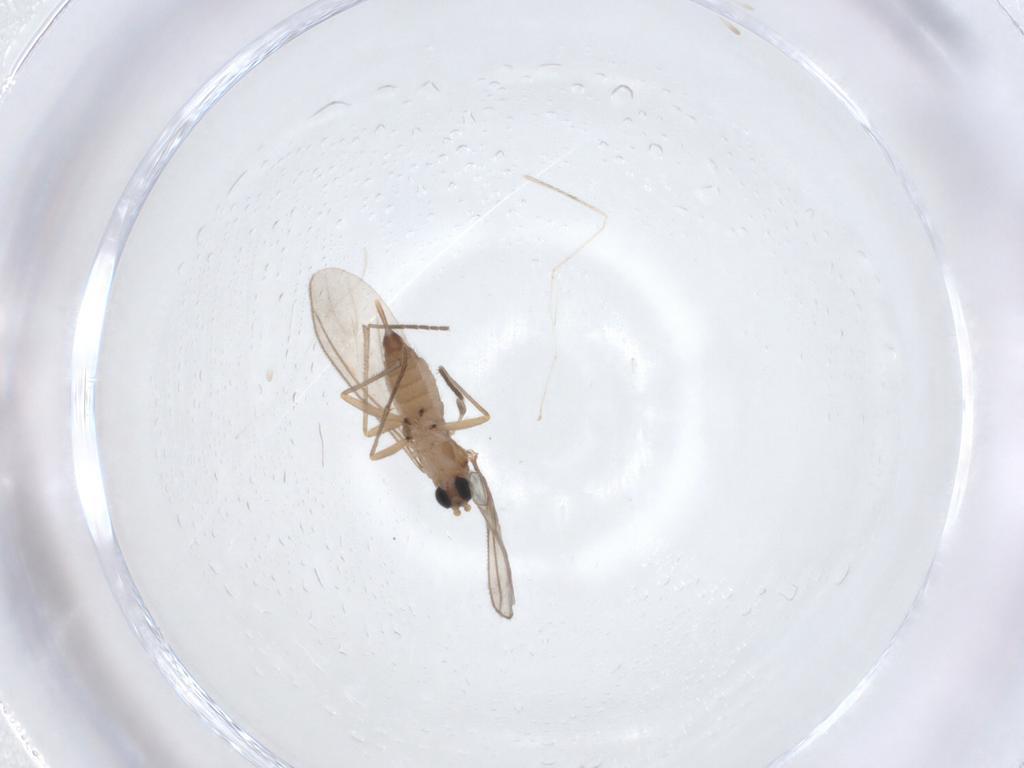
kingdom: Animalia
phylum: Arthropoda
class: Insecta
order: Diptera
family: Sciaridae
